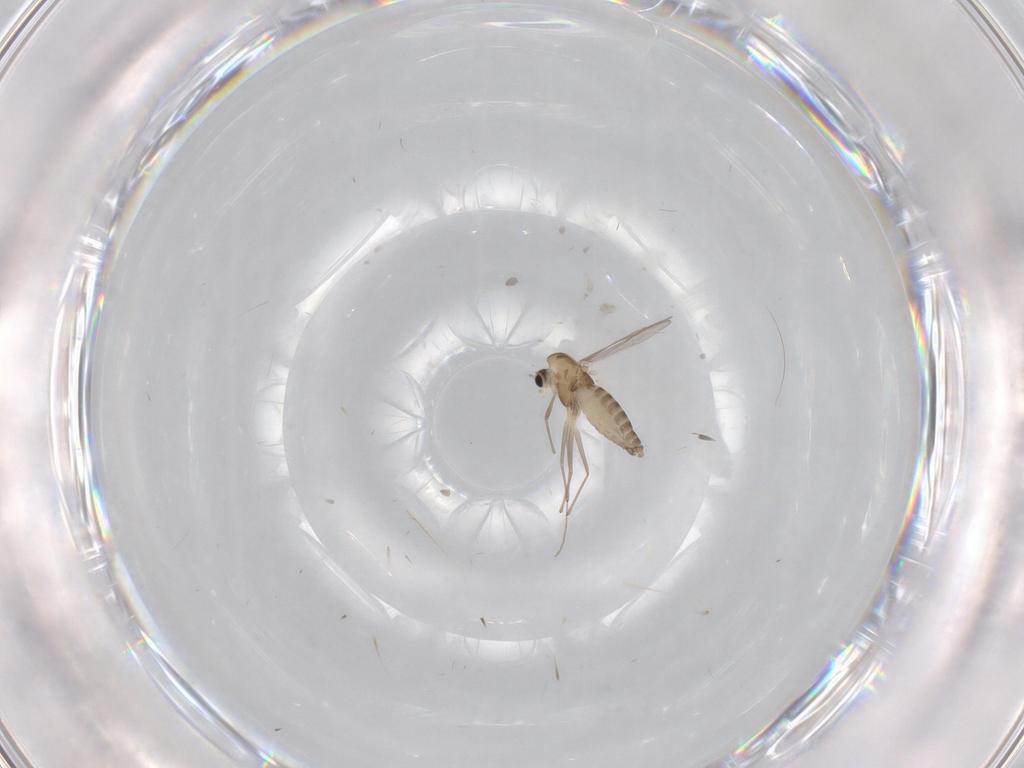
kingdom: Animalia
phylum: Arthropoda
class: Insecta
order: Diptera
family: Chironomidae
